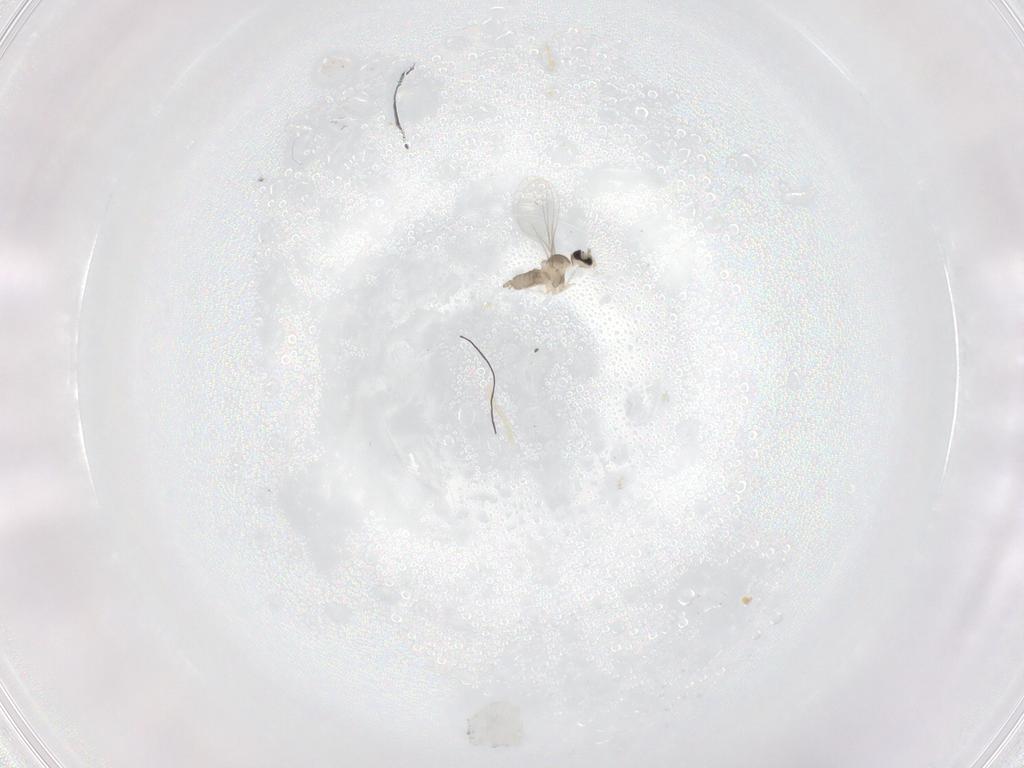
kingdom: Animalia
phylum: Arthropoda
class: Insecta
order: Diptera
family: Cecidomyiidae
